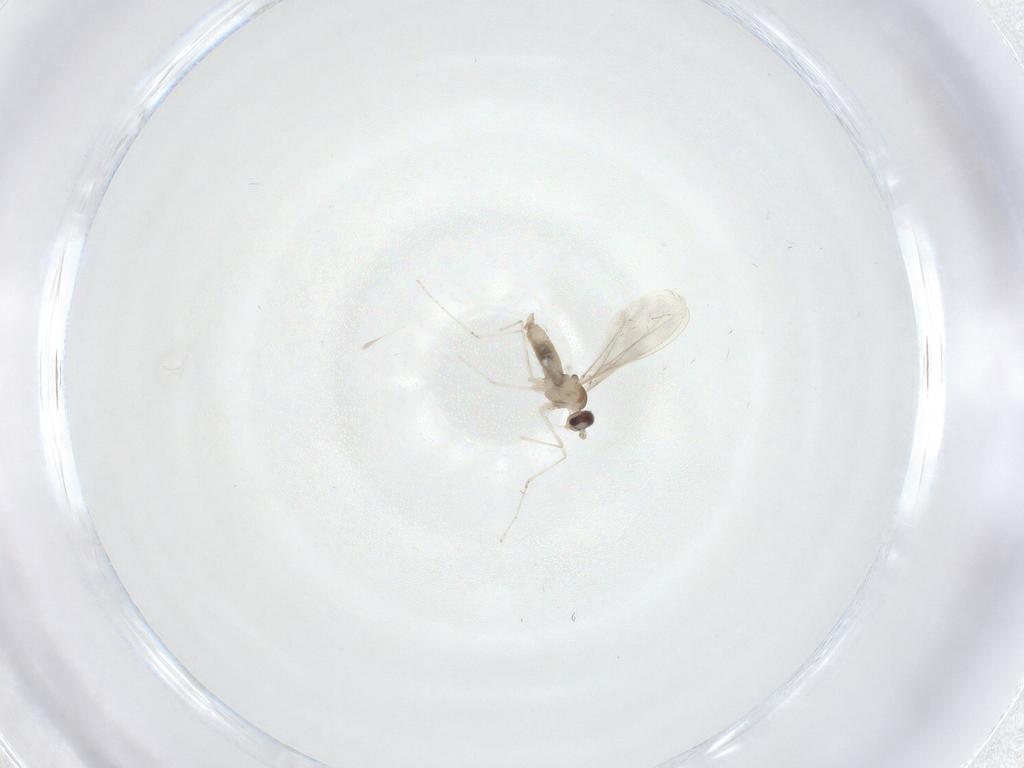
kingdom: Animalia
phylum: Arthropoda
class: Insecta
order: Diptera
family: Cecidomyiidae
